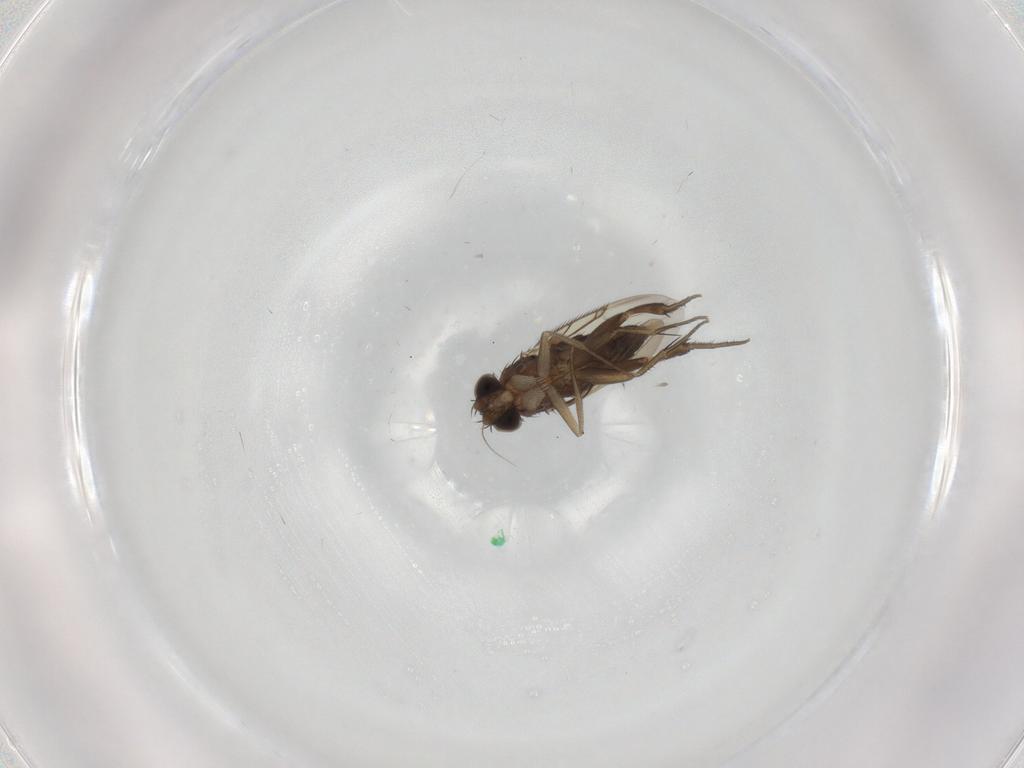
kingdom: Animalia
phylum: Arthropoda
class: Insecta
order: Diptera
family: Phoridae
